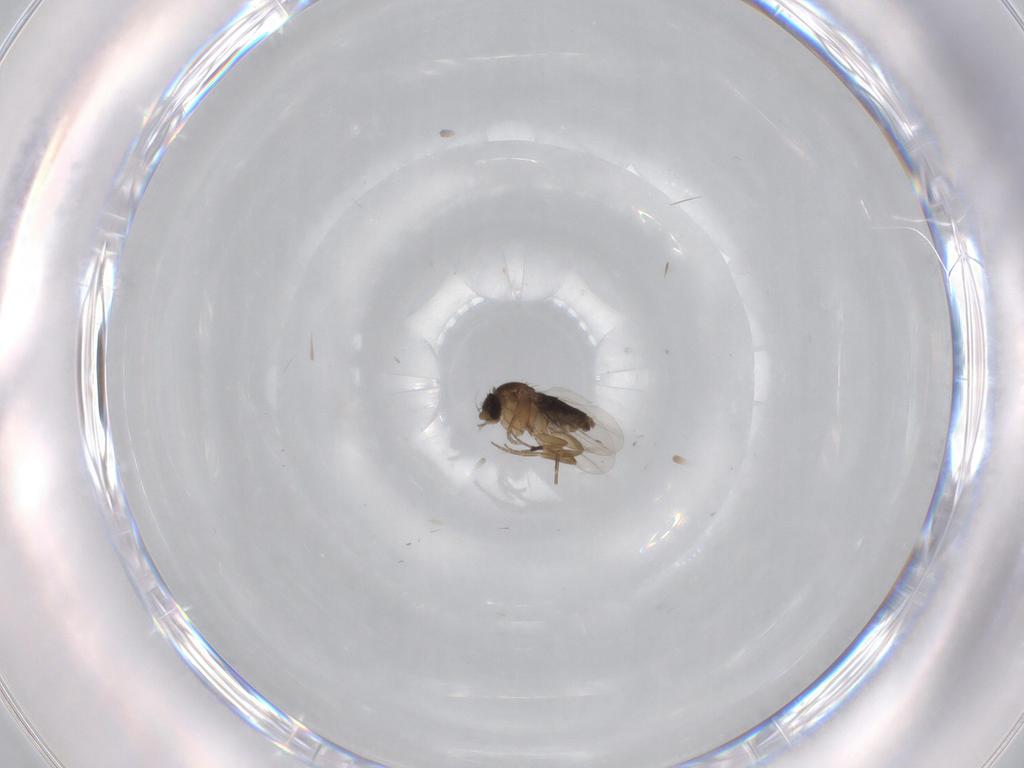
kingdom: Animalia
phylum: Arthropoda
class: Insecta
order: Diptera
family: Phoridae
